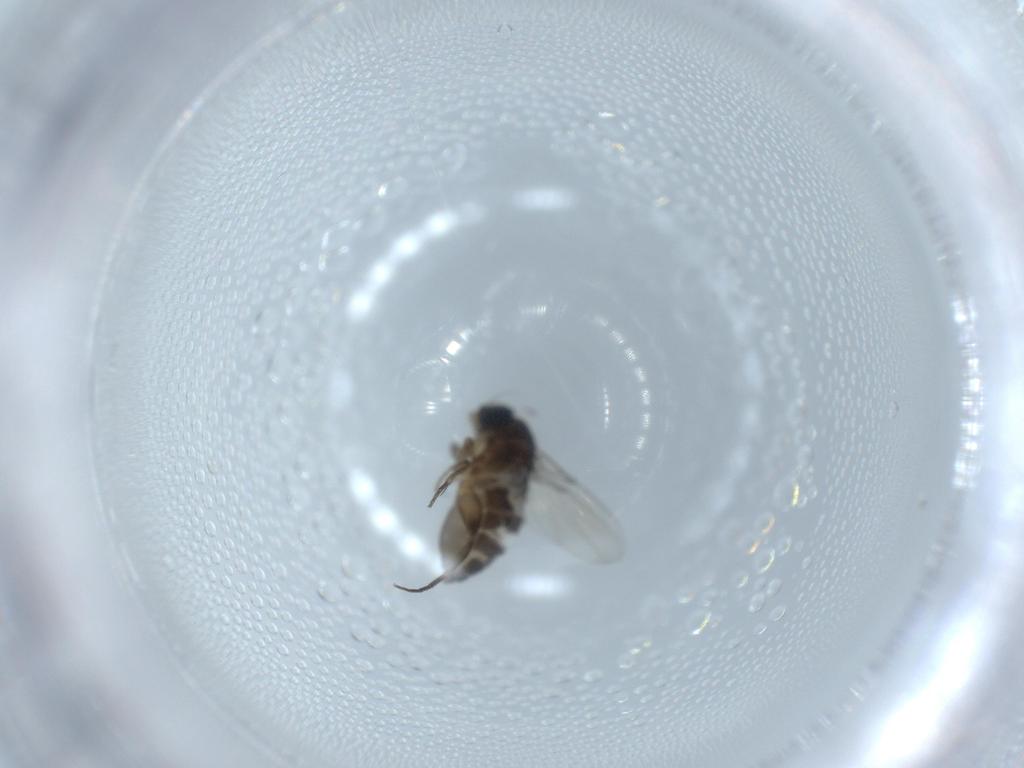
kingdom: Animalia
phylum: Arthropoda
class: Insecta
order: Diptera
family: Phoridae
